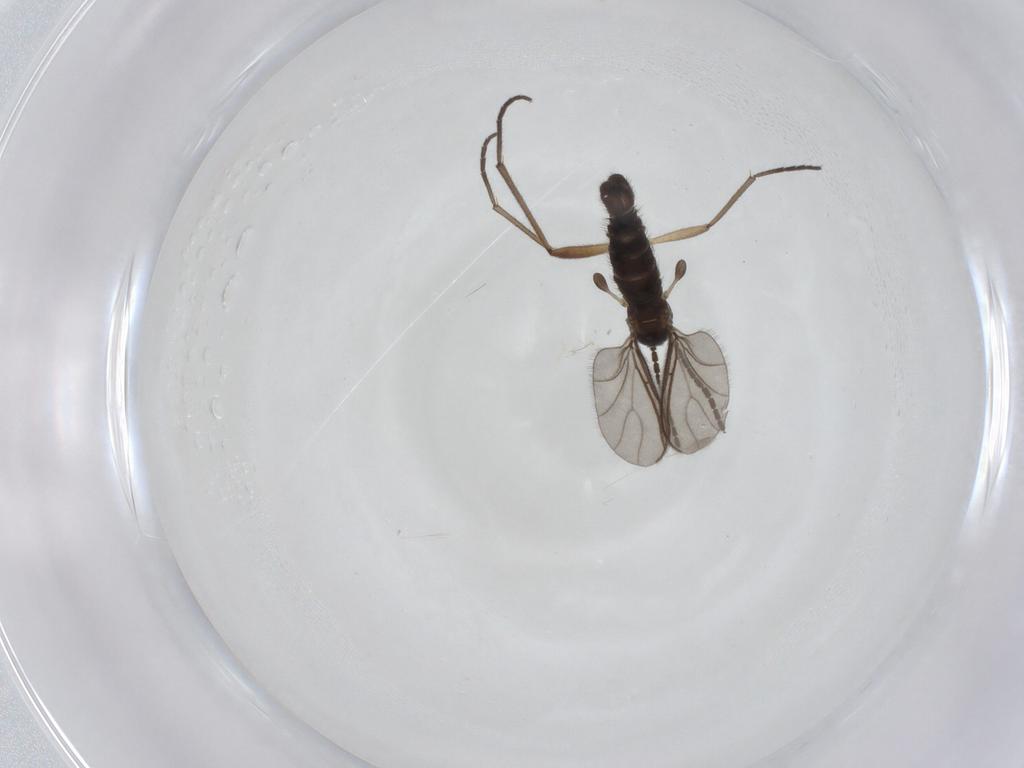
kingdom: Animalia
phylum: Arthropoda
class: Insecta
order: Diptera
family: Sciaridae
